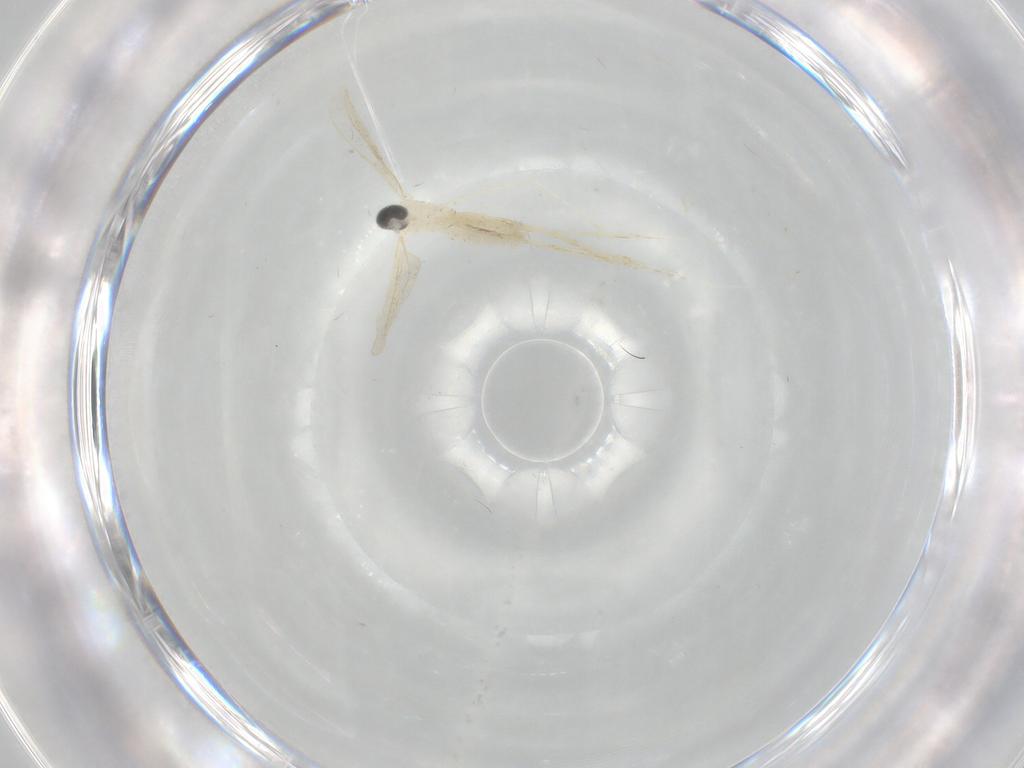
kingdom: Animalia
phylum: Arthropoda
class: Insecta
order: Diptera
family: Cecidomyiidae
